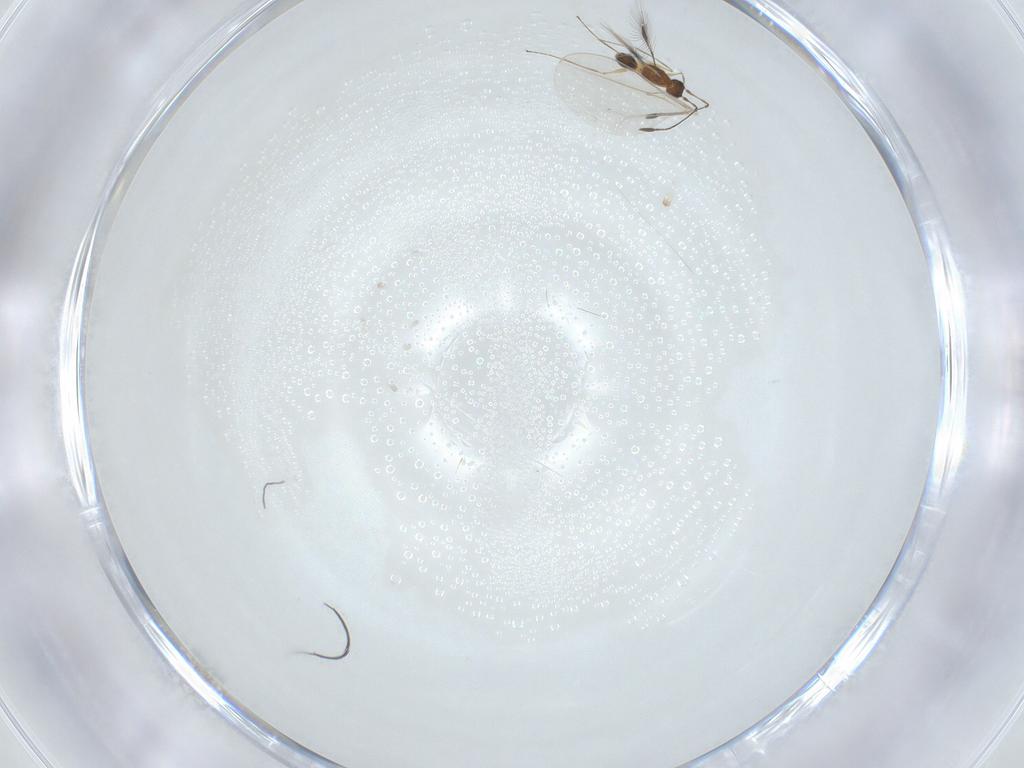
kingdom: Animalia
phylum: Arthropoda
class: Insecta
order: Hymenoptera
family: Mymaridae
